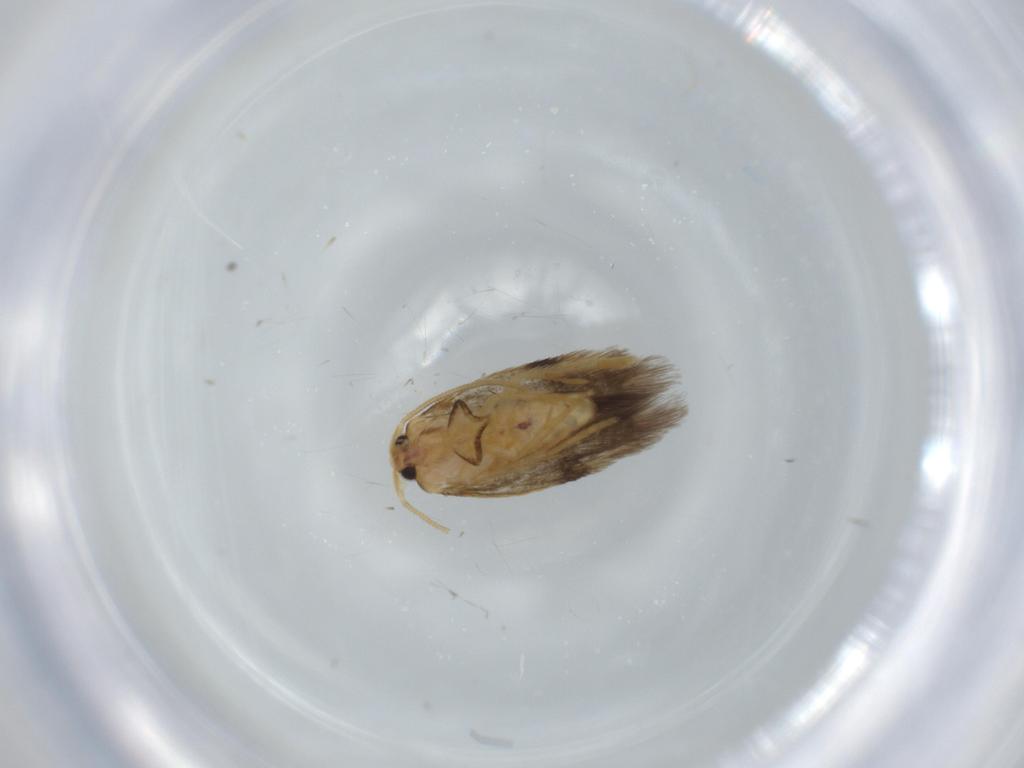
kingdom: Animalia
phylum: Arthropoda
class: Insecta
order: Lepidoptera
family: Nepticulidae
